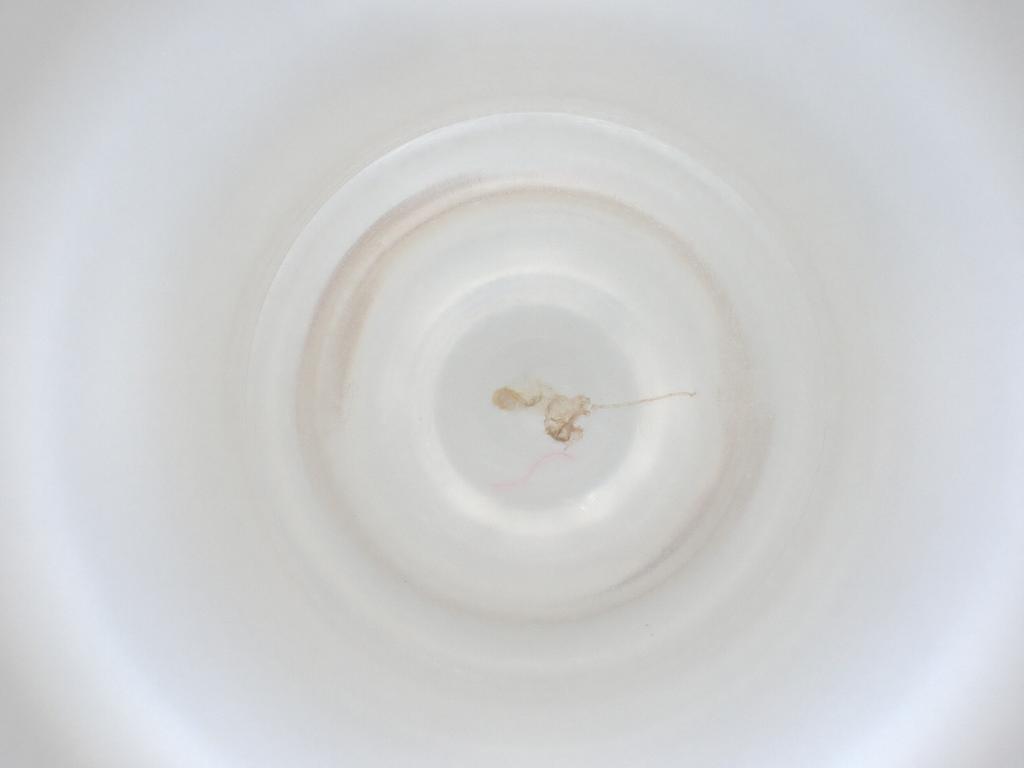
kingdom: Animalia
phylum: Arthropoda
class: Insecta
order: Diptera
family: Cecidomyiidae
